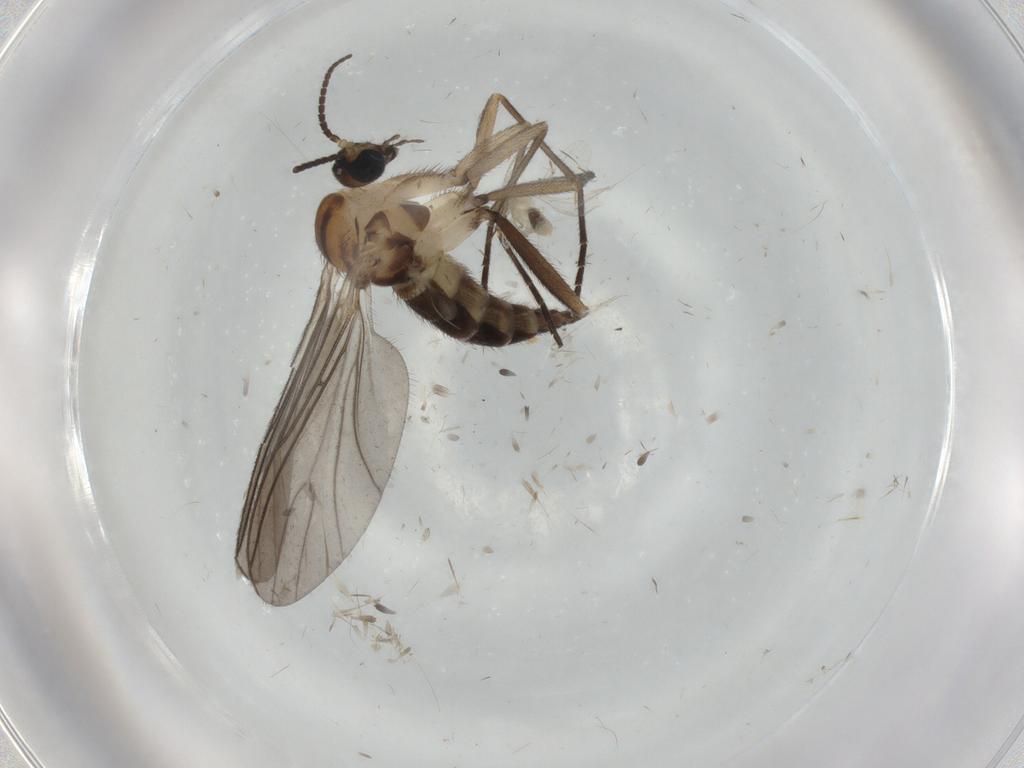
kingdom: Animalia
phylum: Arthropoda
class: Insecta
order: Diptera
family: Sciaridae
